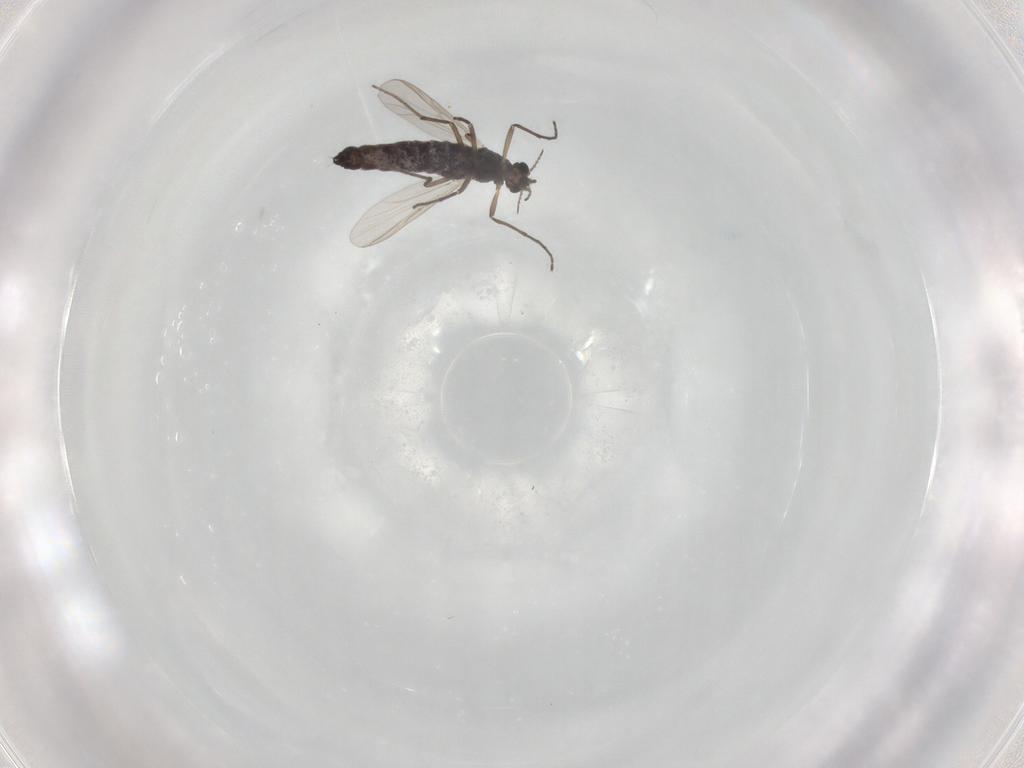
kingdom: Animalia
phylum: Arthropoda
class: Insecta
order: Diptera
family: Chironomidae
